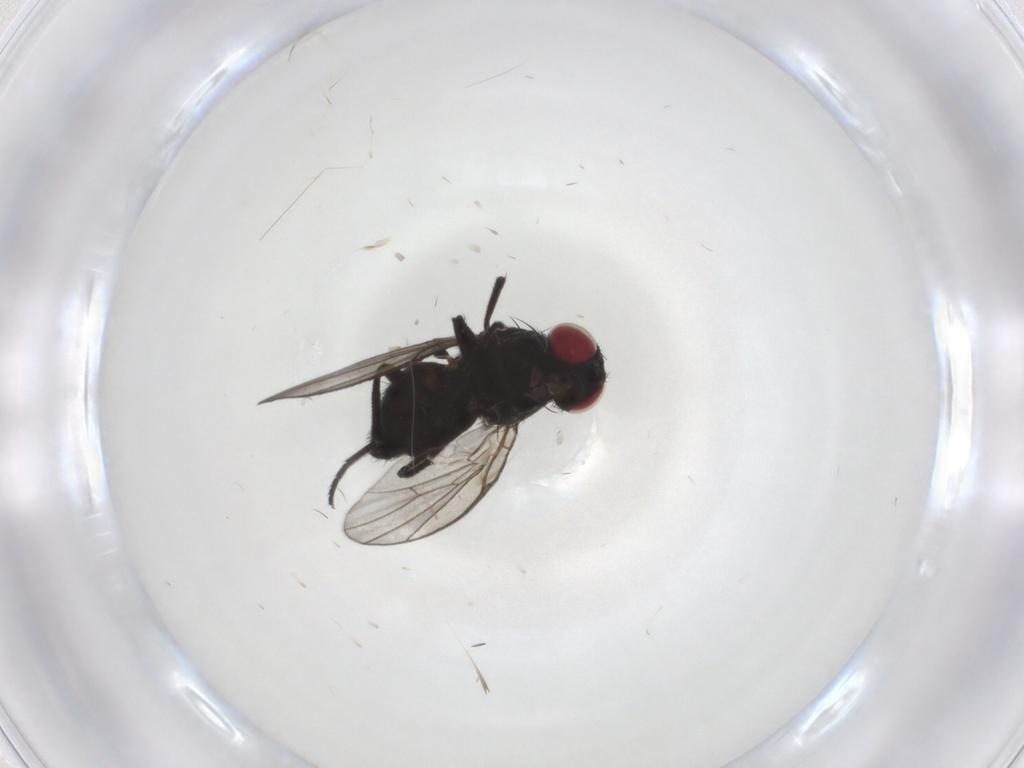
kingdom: Animalia
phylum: Arthropoda
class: Insecta
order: Diptera
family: Agromyzidae
